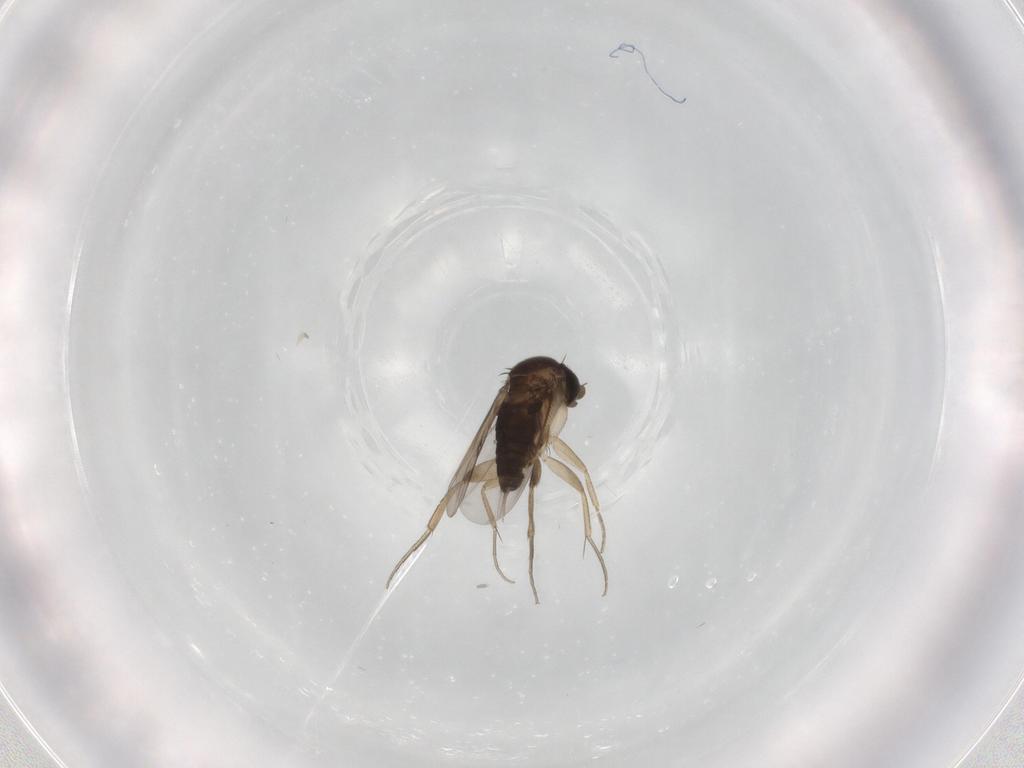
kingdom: Animalia
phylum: Arthropoda
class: Insecta
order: Diptera
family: Phoridae
